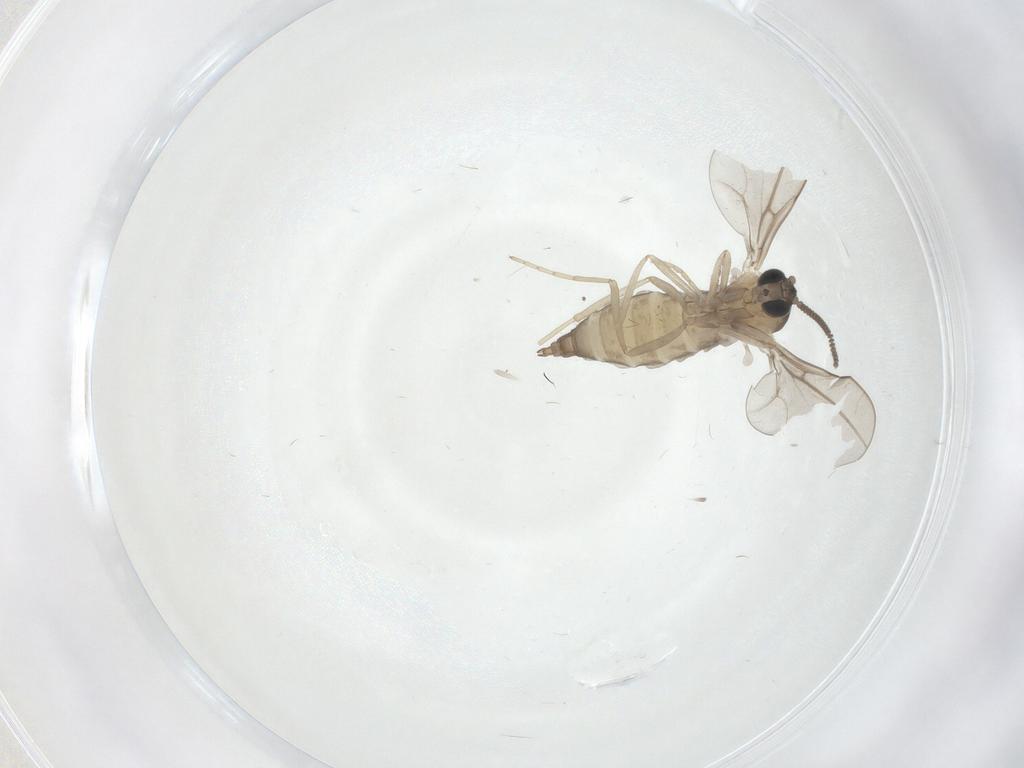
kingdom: Animalia
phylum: Arthropoda
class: Insecta
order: Diptera
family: Cecidomyiidae
